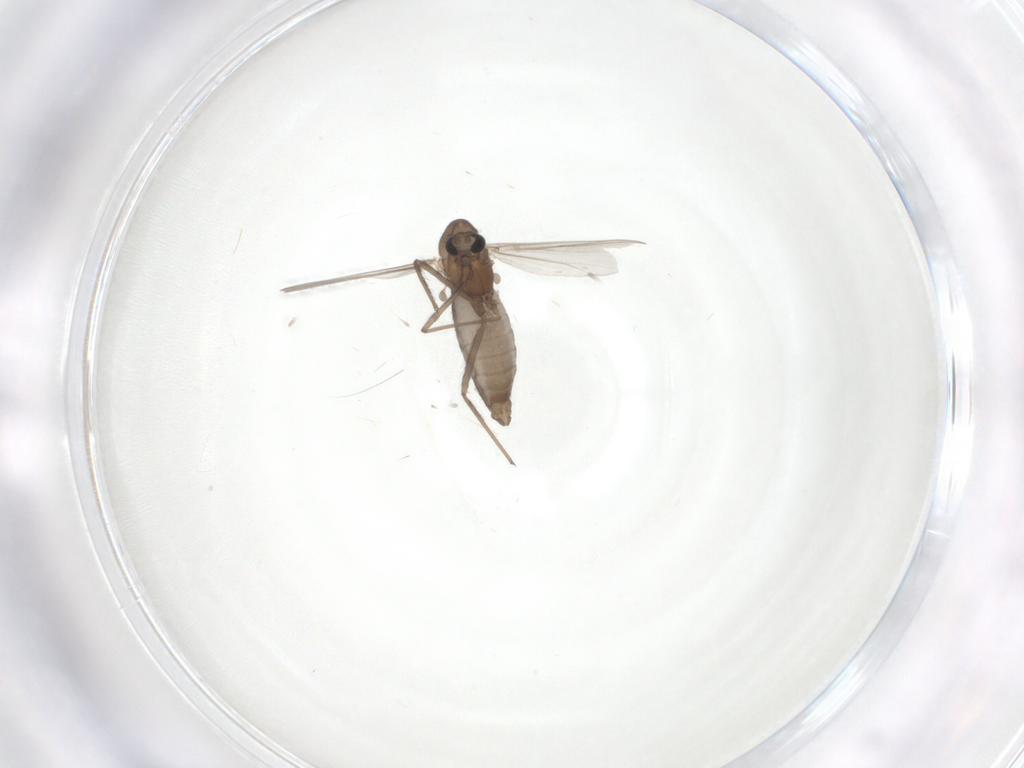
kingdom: Animalia
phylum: Arthropoda
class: Insecta
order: Diptera
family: Chironomidae
